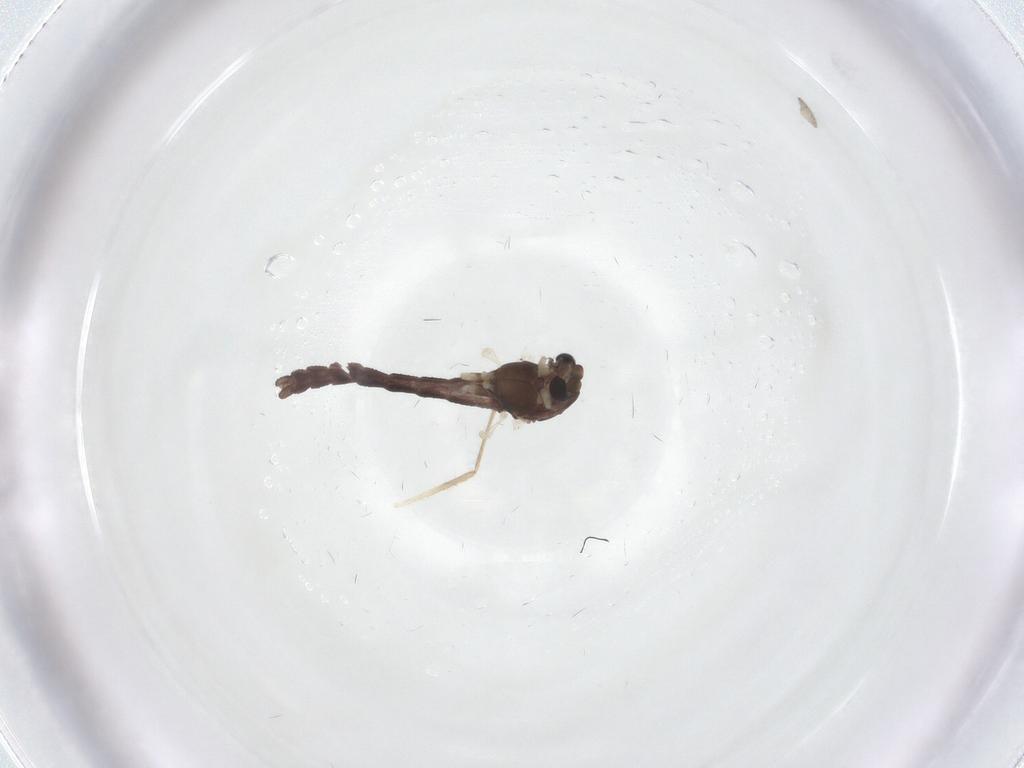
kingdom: Animalia
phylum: Arthropoda
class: Insecta
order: Diptera
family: Chironomidae
